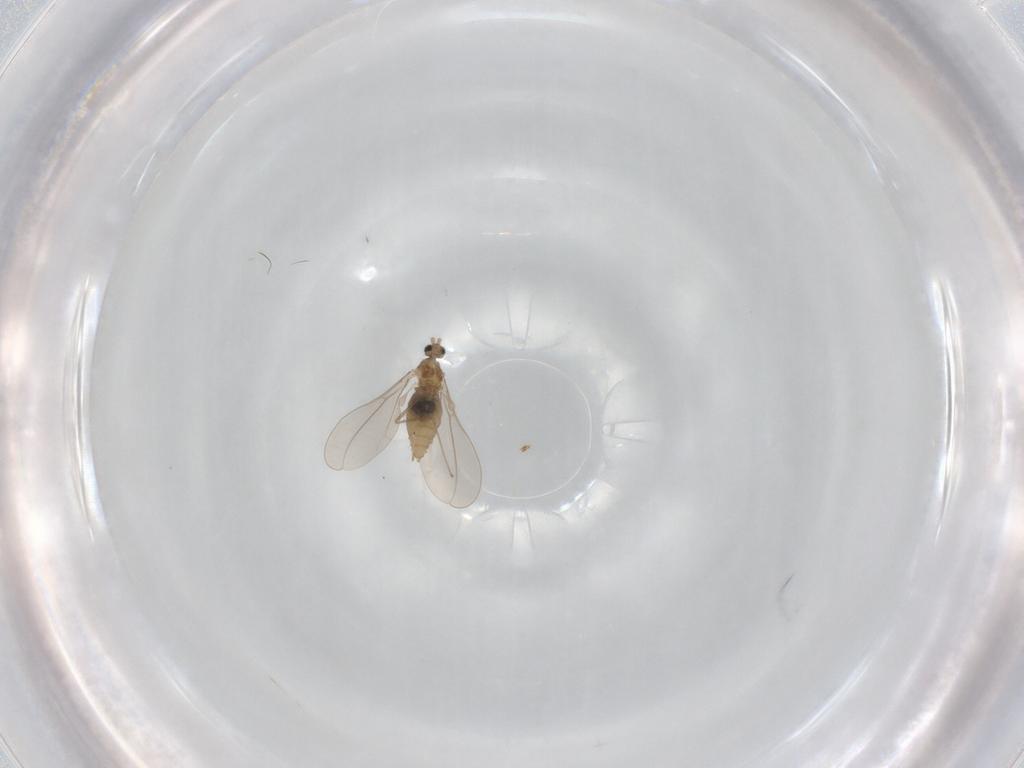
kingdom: Animalia
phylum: Arthropoda
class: Insecta
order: Diptera
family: Cecidomyiidae
